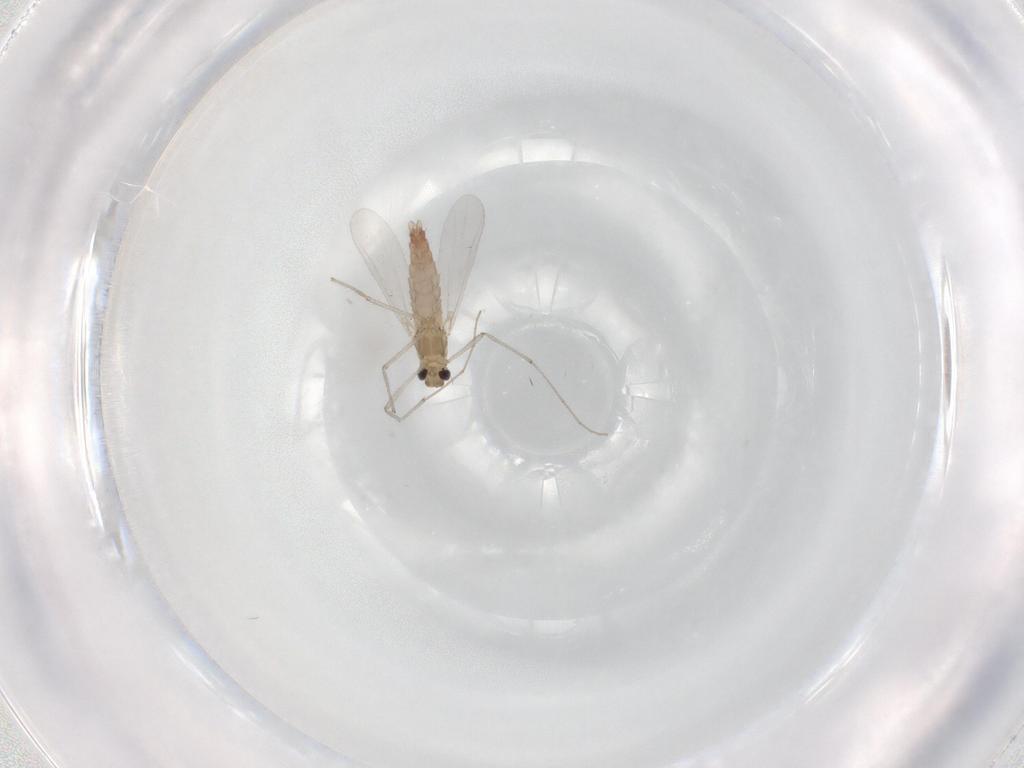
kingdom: Animalia
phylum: Arthropoda
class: Insecta
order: Diptera
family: Chironomidae
